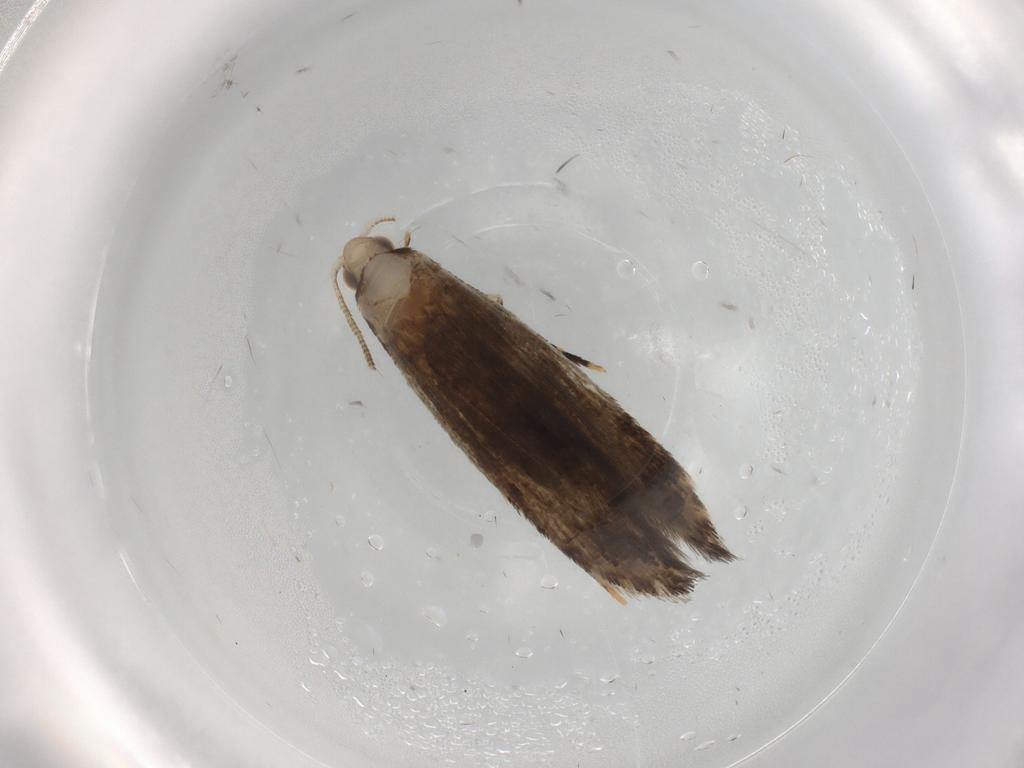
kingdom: Animalia
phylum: Arthropoda
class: Insecta
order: Lepidoptera
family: Meessiidae
